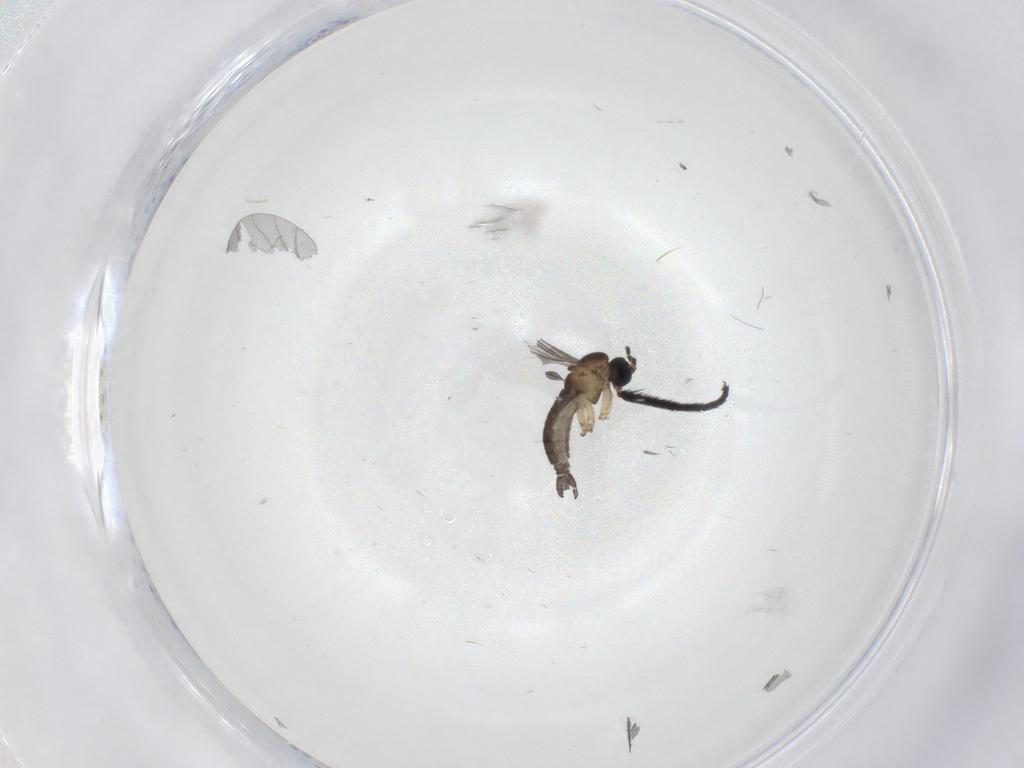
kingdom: Animalia
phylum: Arthropoda
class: Insecta
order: Diptera
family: Sciaridae
